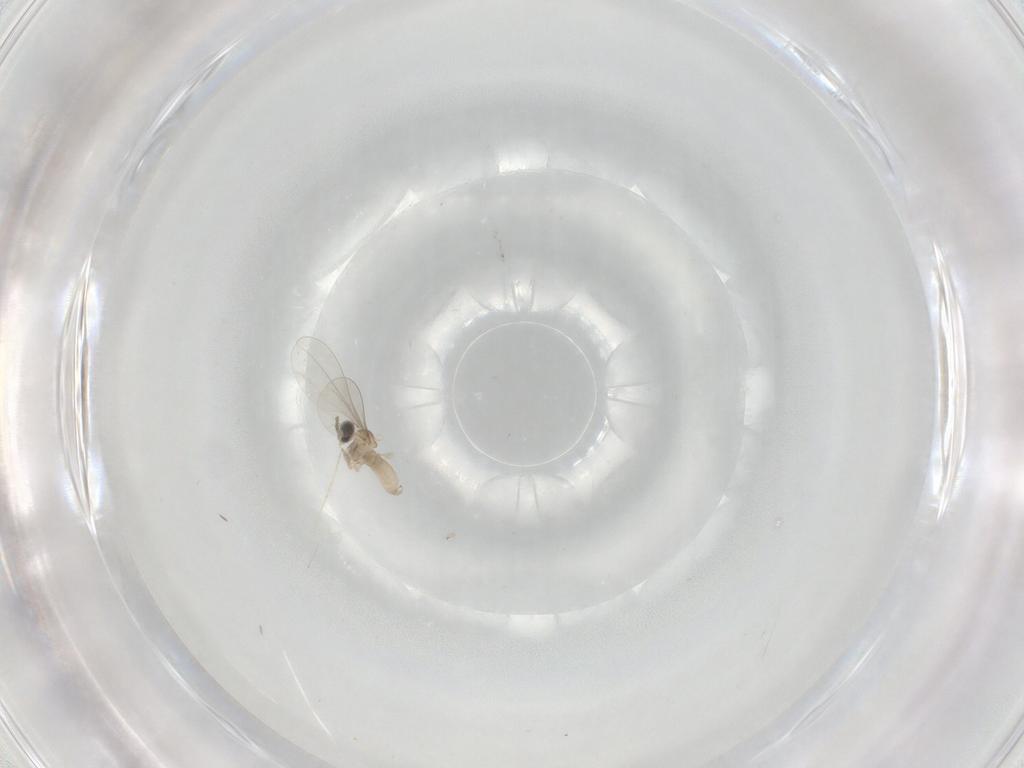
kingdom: Animalia
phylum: Arthropoda
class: Insecta
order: Diptera
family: Cecidomyiidae
